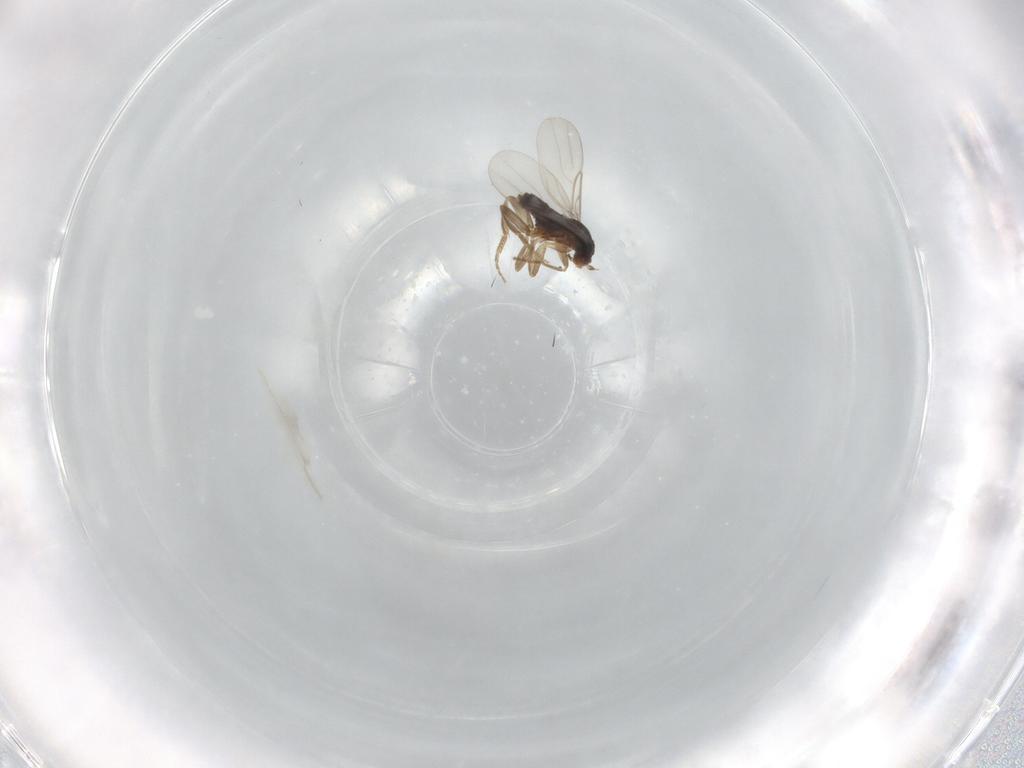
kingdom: Animalia
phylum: Arthropoda
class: Insecta
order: Diptera
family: Phoridae
